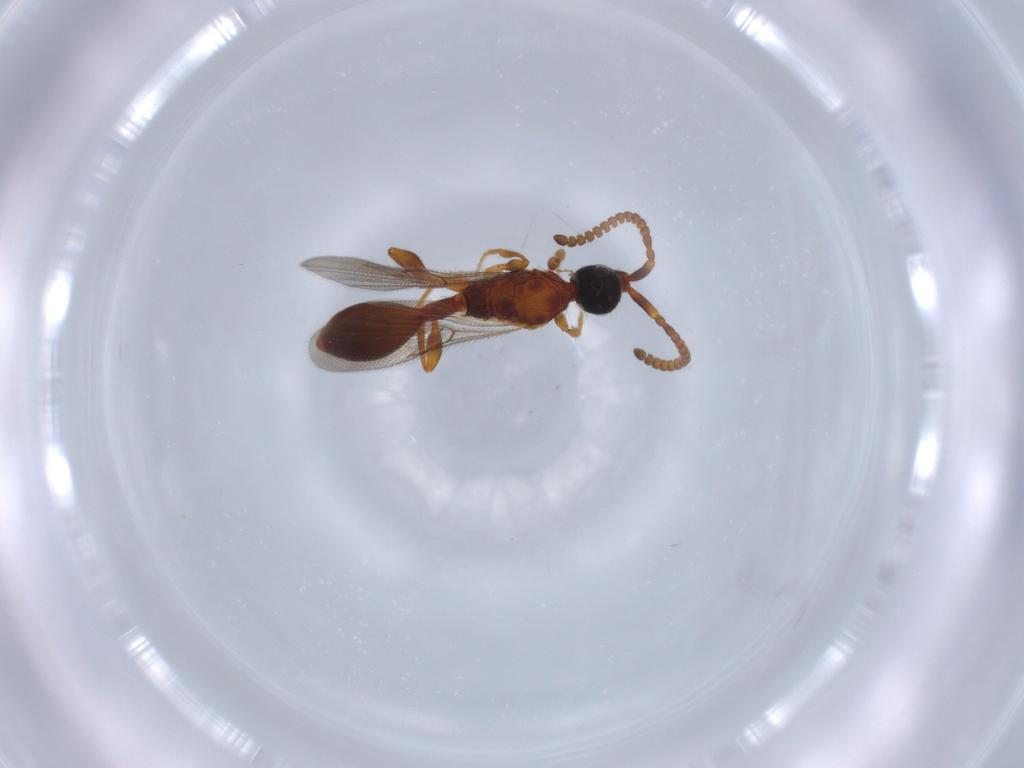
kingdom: Animalia
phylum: Arthropoda
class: Insecta
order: Hymenoptera
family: Diapriidae
